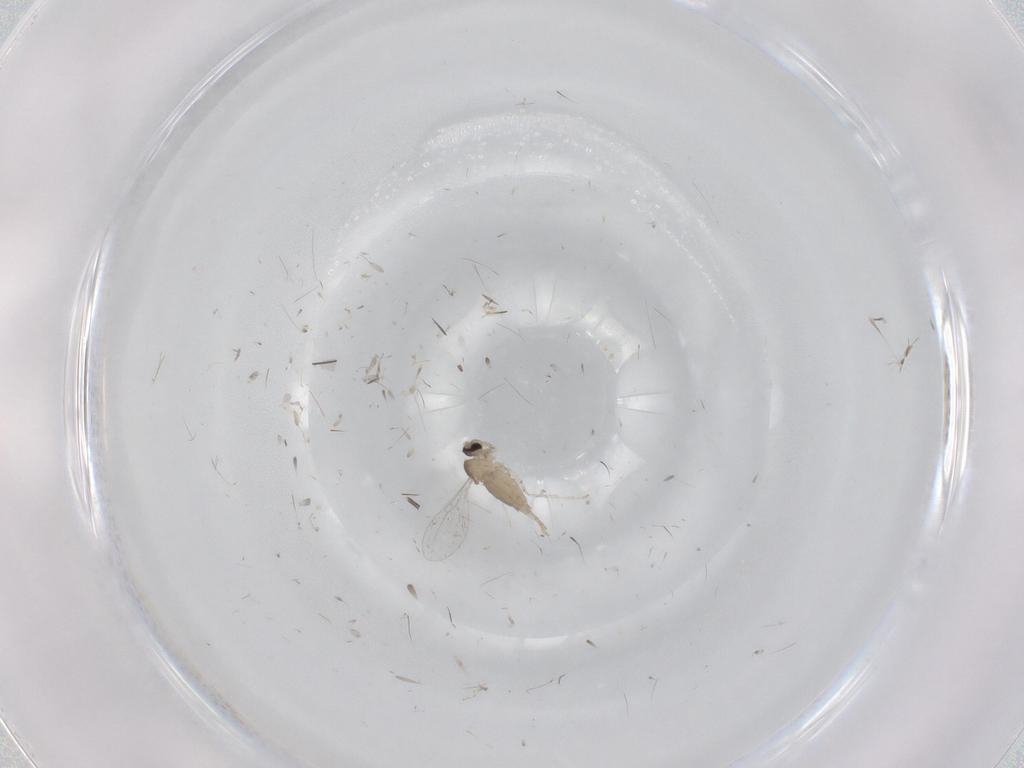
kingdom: Animalia
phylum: Arthropoda
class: Insecta
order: Diptera
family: Cecidomyiidae
